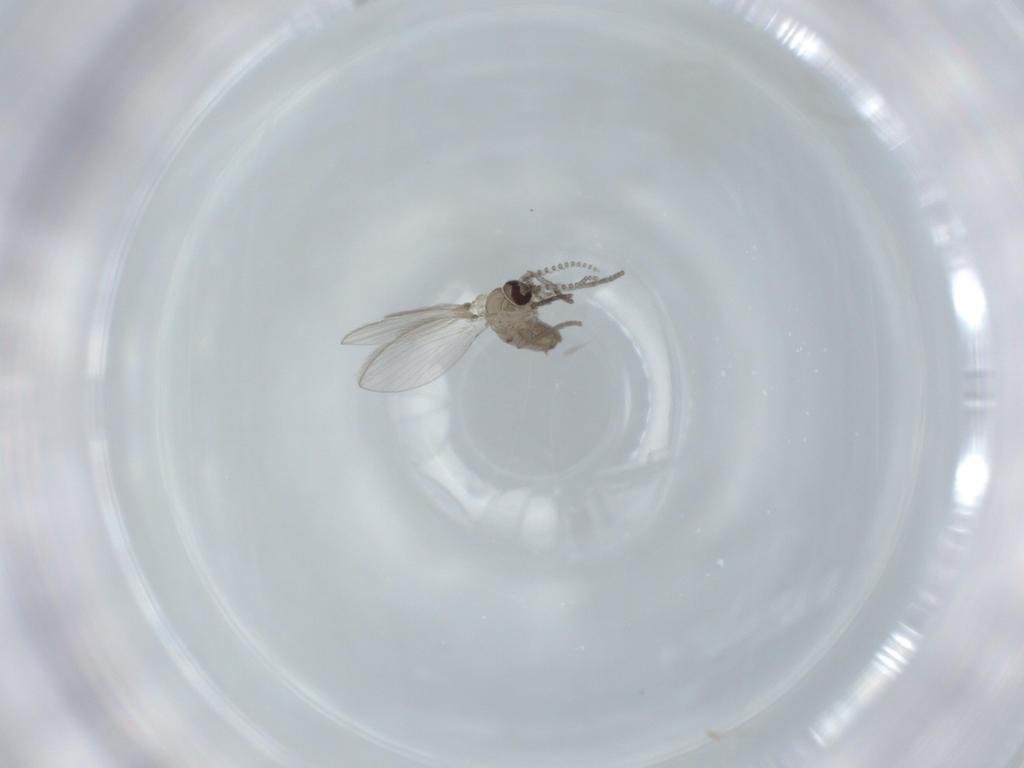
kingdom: Animalia
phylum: Arthropoda
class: Insecta
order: Diptera
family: Psychodidae
